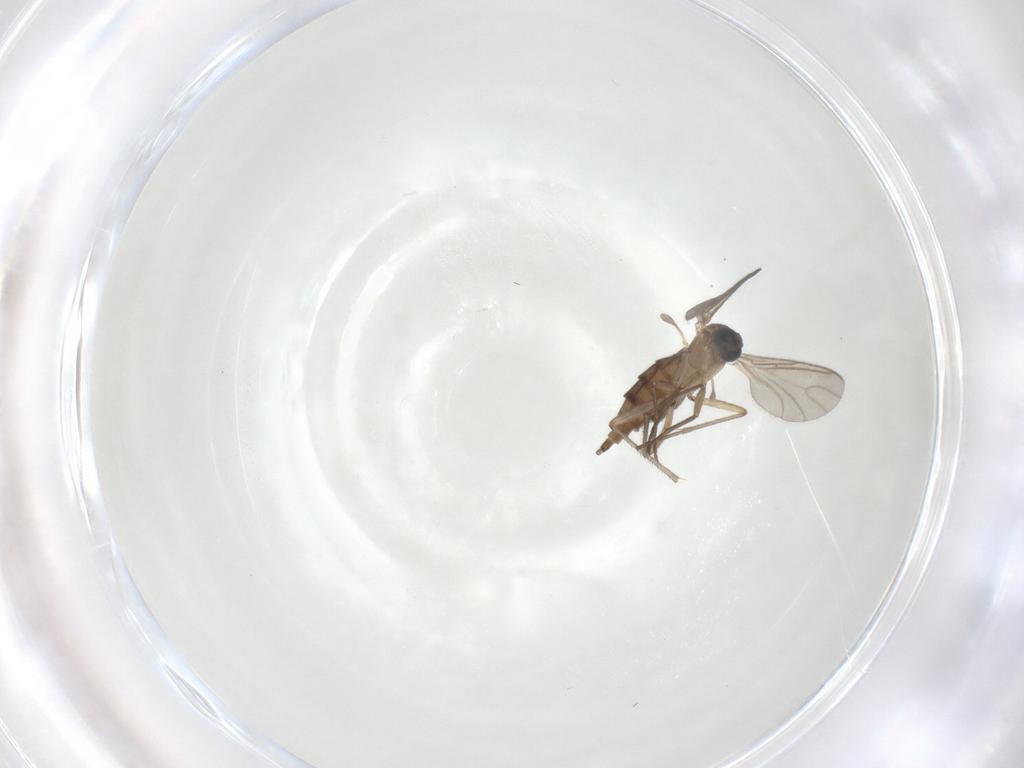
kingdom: Animalia
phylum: Arthropoda
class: Insecta
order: Diptera
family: Sciaridae
